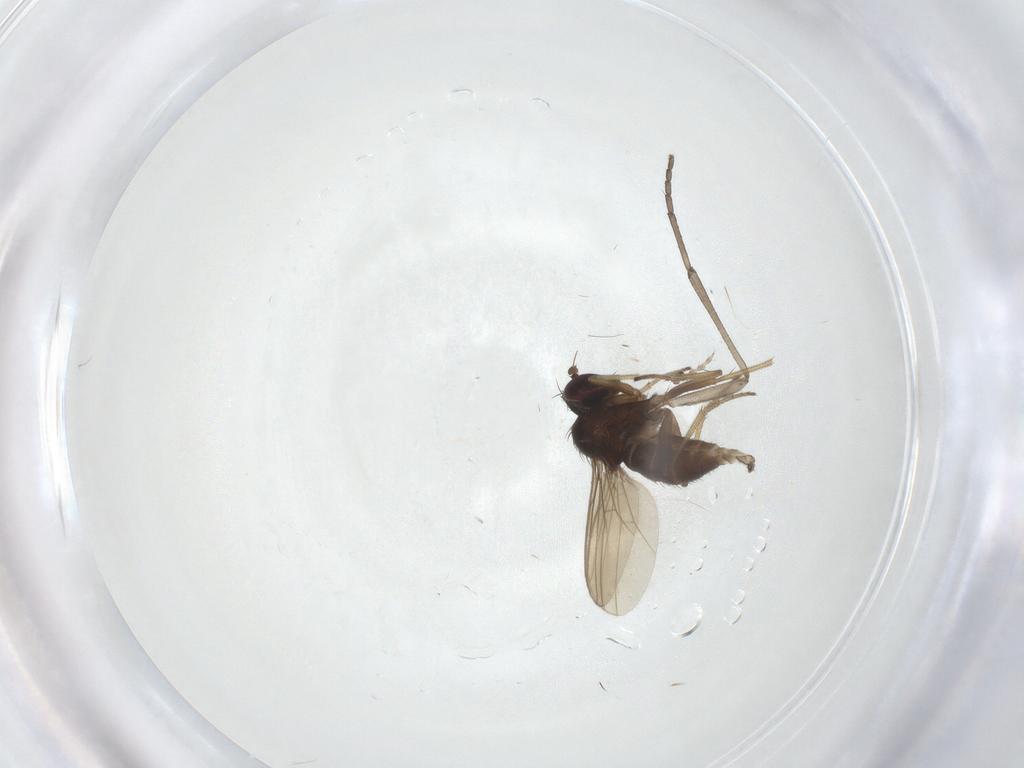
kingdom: Animalia
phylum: Arthropoda
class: Insecta
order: Diptera
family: Dolichopodidae
